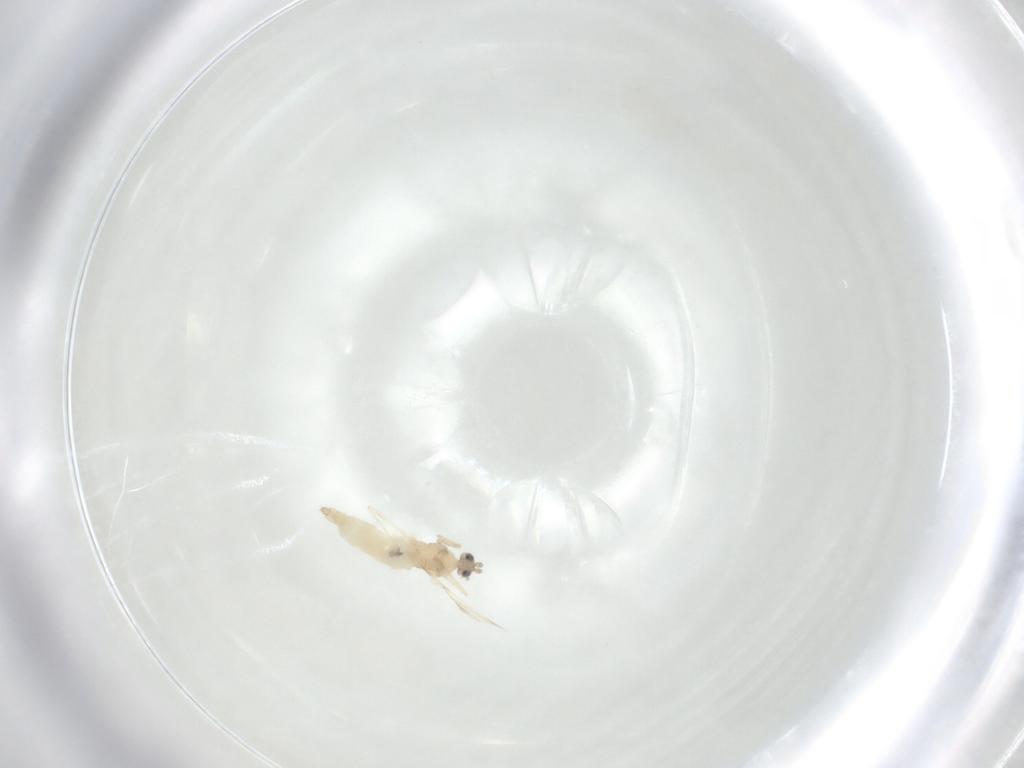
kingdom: Animalia
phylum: Arthropoda
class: Insecta
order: Diptera
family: Cecidomyiidae
